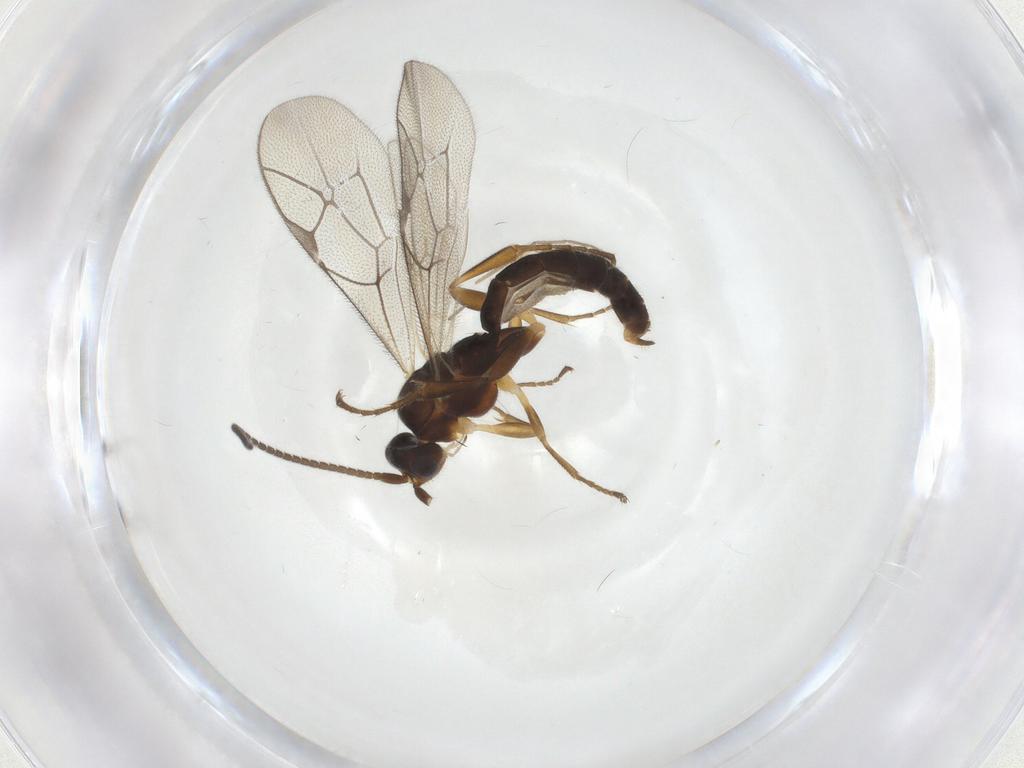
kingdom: Animalia
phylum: Arthropoda
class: Insecta
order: Hymenoptera
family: Ichneumonidae
